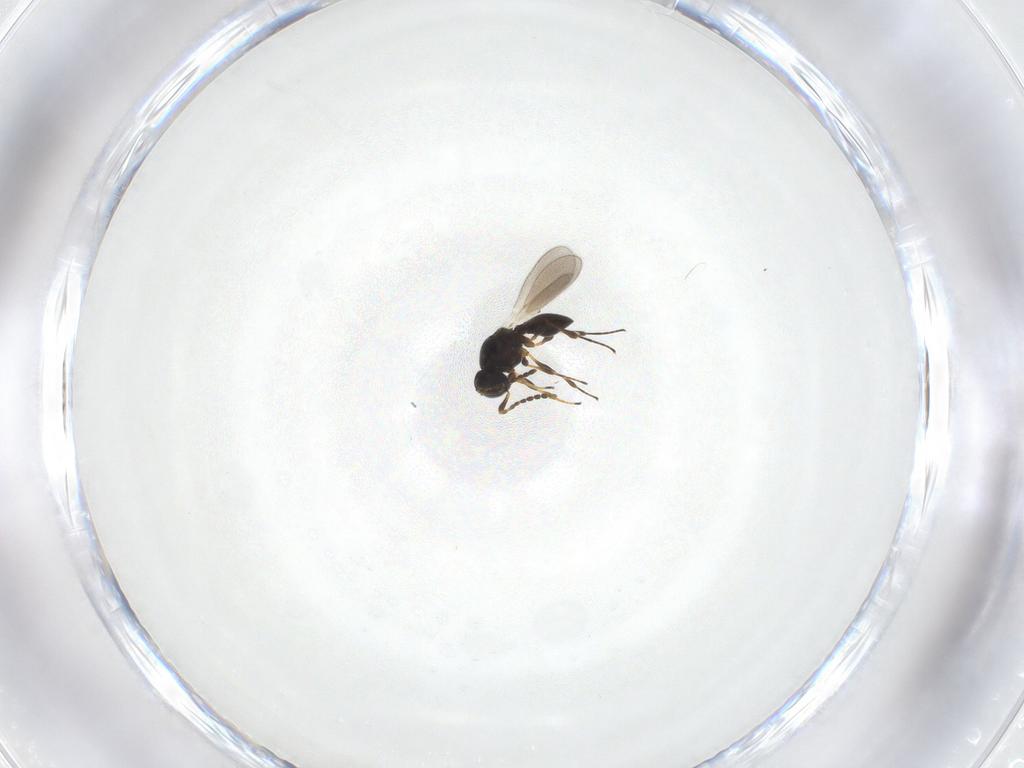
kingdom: Animalia
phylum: Arthropoda
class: Insecta
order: Hymenoptera
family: Platygastridae
